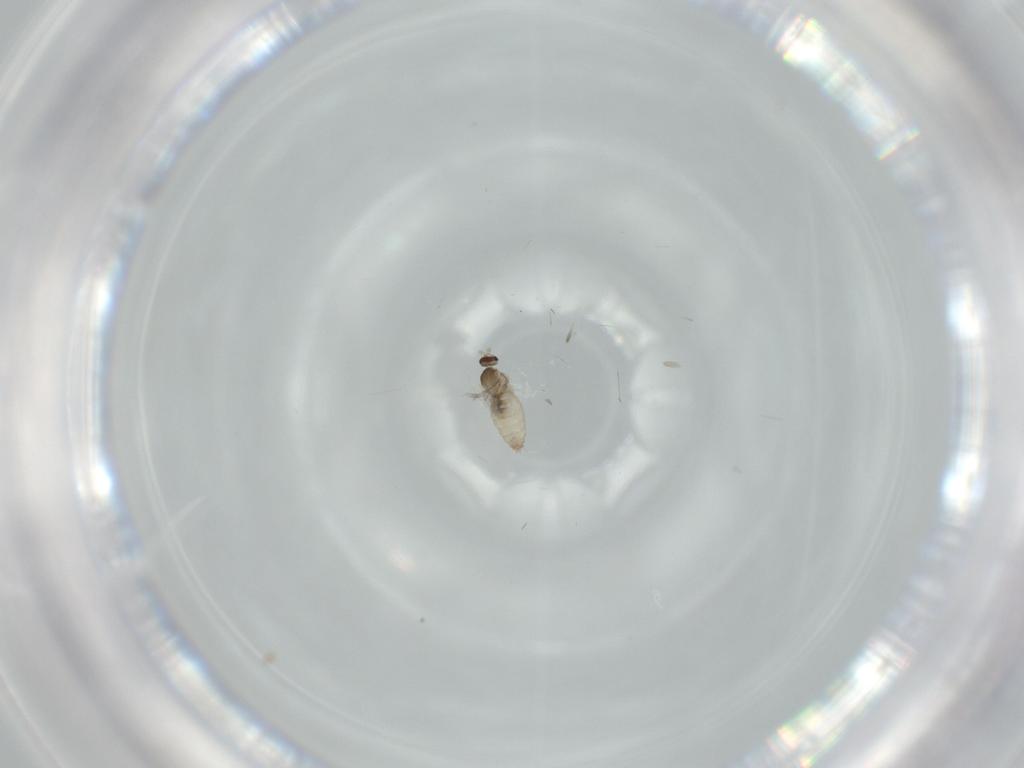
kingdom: Animalia
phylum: Arthropoda
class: Insecta
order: Diptera
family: Cecidomyiidae
